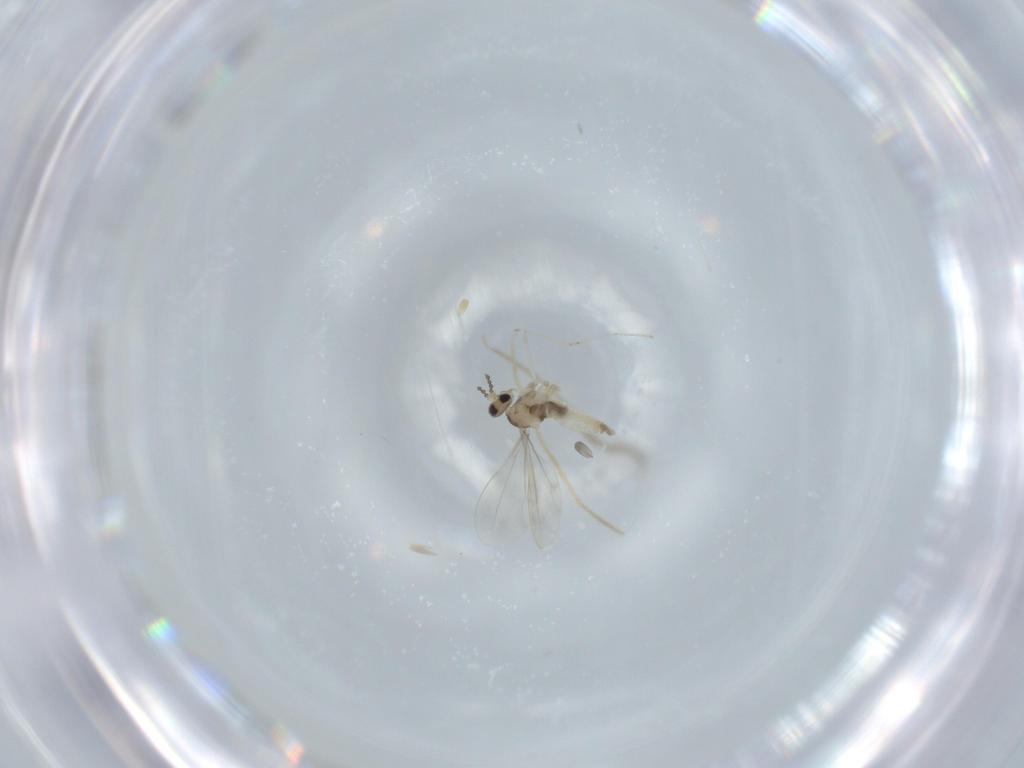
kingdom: Animalia
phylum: Arthropoda
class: Insecta
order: Diptera
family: Cecidomyiidae
